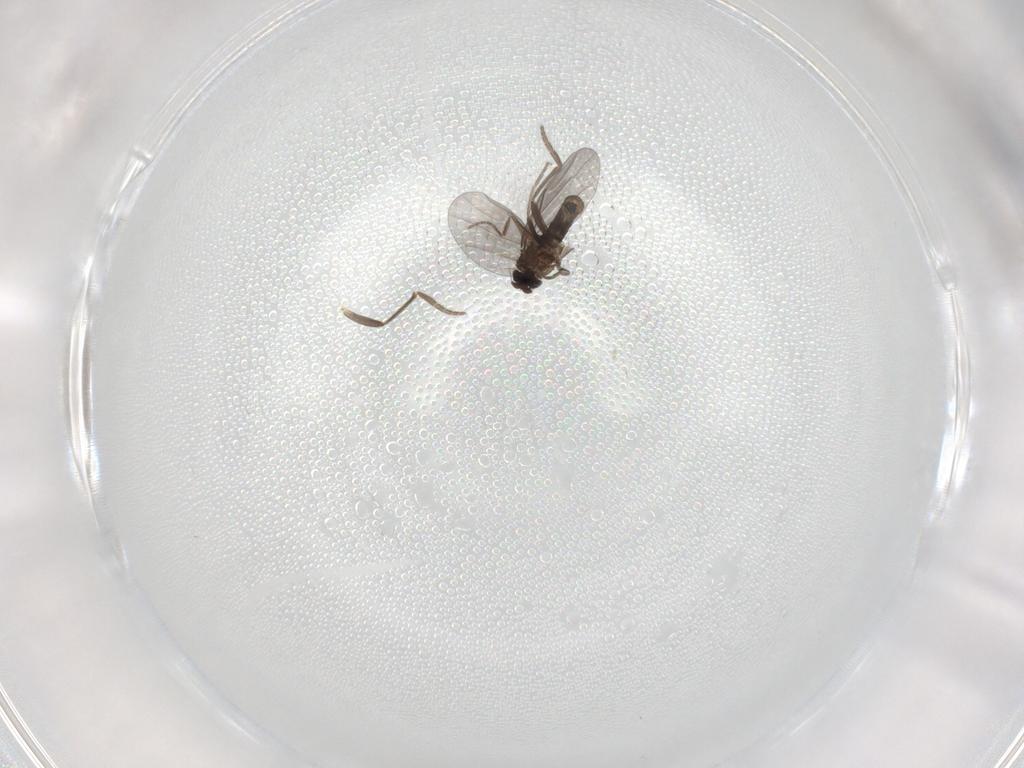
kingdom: Animalia
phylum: Arthropoda
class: Insecta
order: Diptera
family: Phoridae
